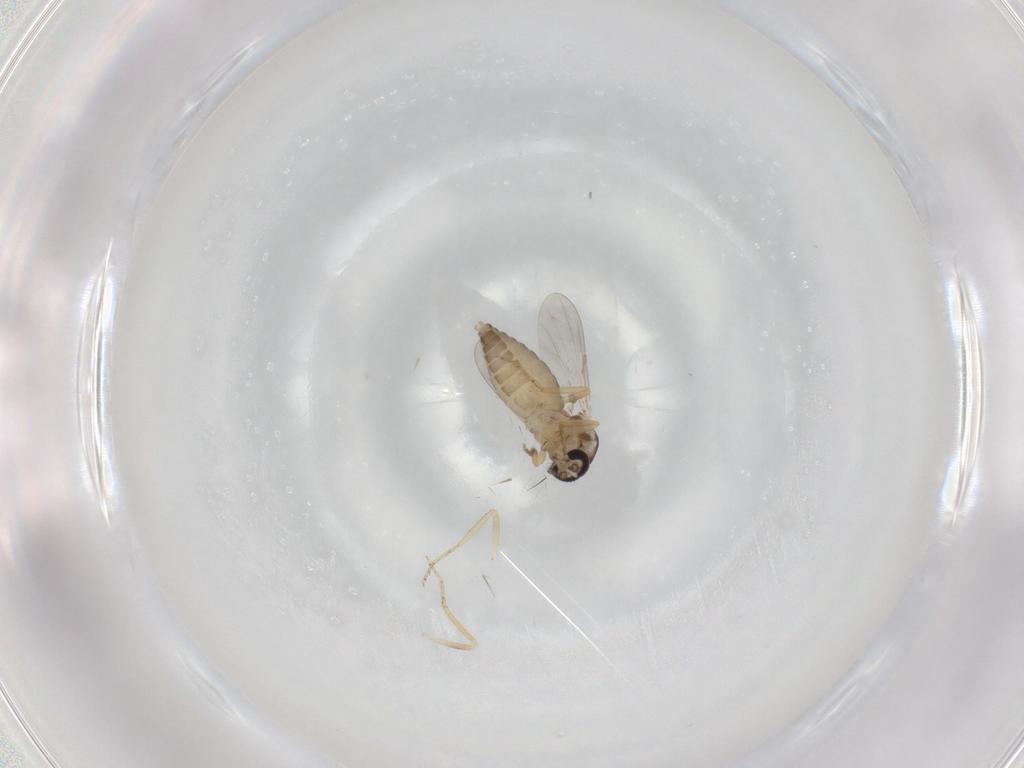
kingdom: Animalia
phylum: Arthropoda
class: Insecta
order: Diptera
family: Ceratopogonidae
